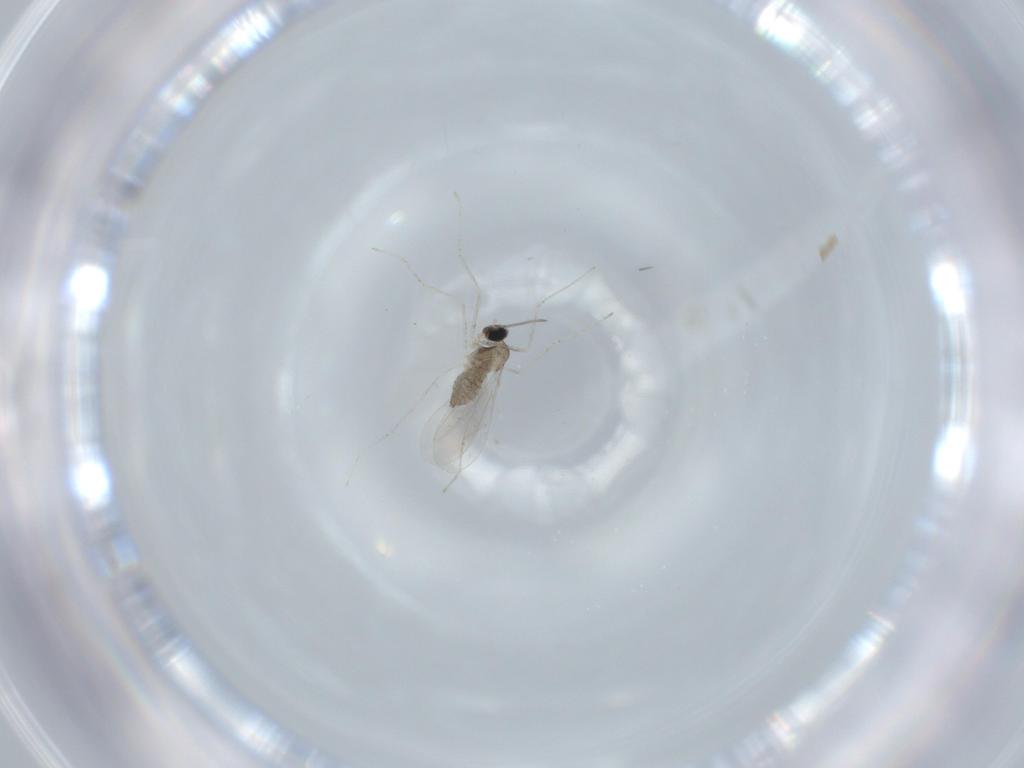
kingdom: Animalia
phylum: Arthropoda
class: Insecta
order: Diptera
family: Cecidomyiidae
